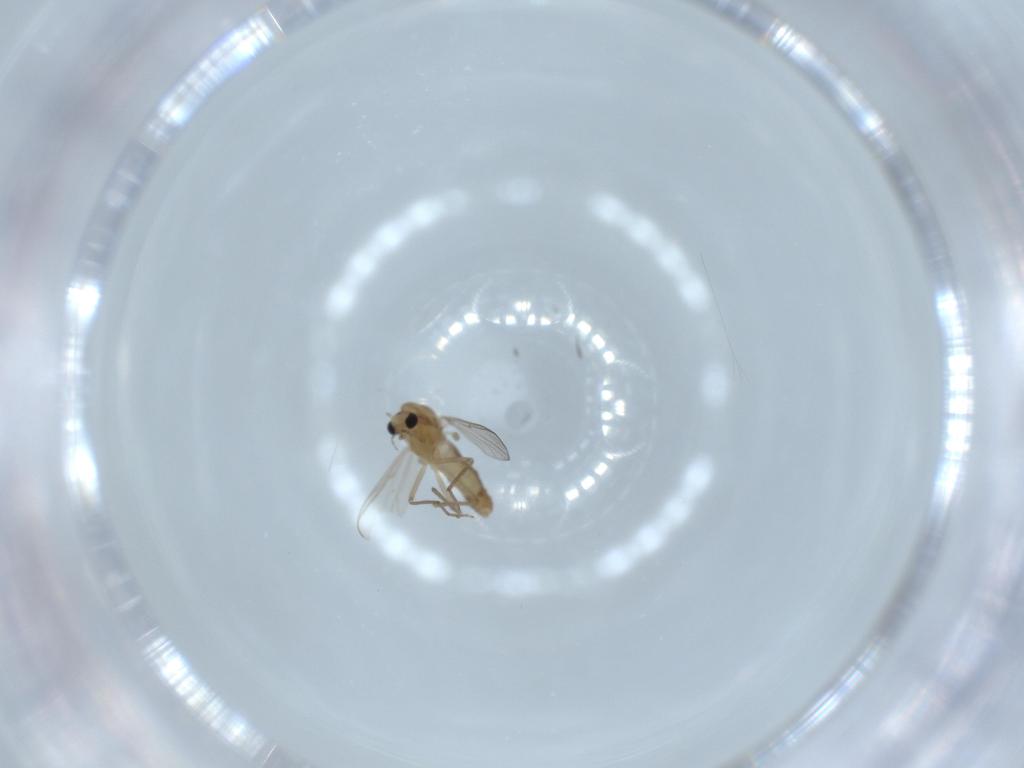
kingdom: Animalia
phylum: Arthropoda
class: Insecta
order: Diptera
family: Chironomidae
